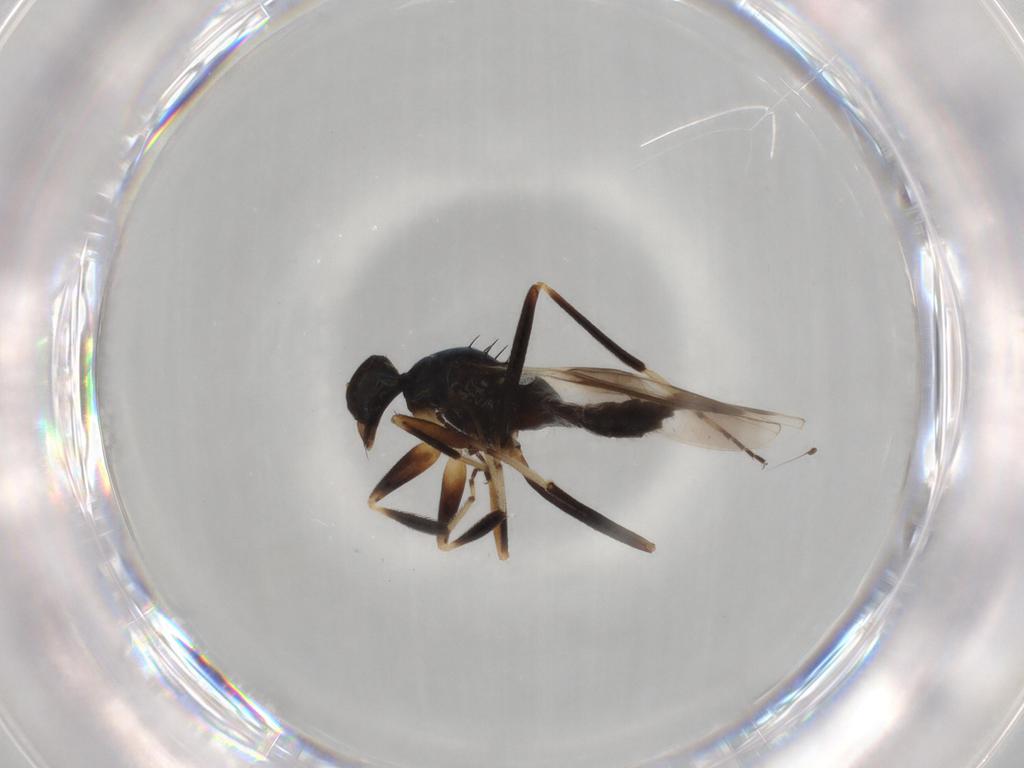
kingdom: Animalia
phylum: Arthropoda
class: Insecta
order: Diptera
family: Hybotidae
